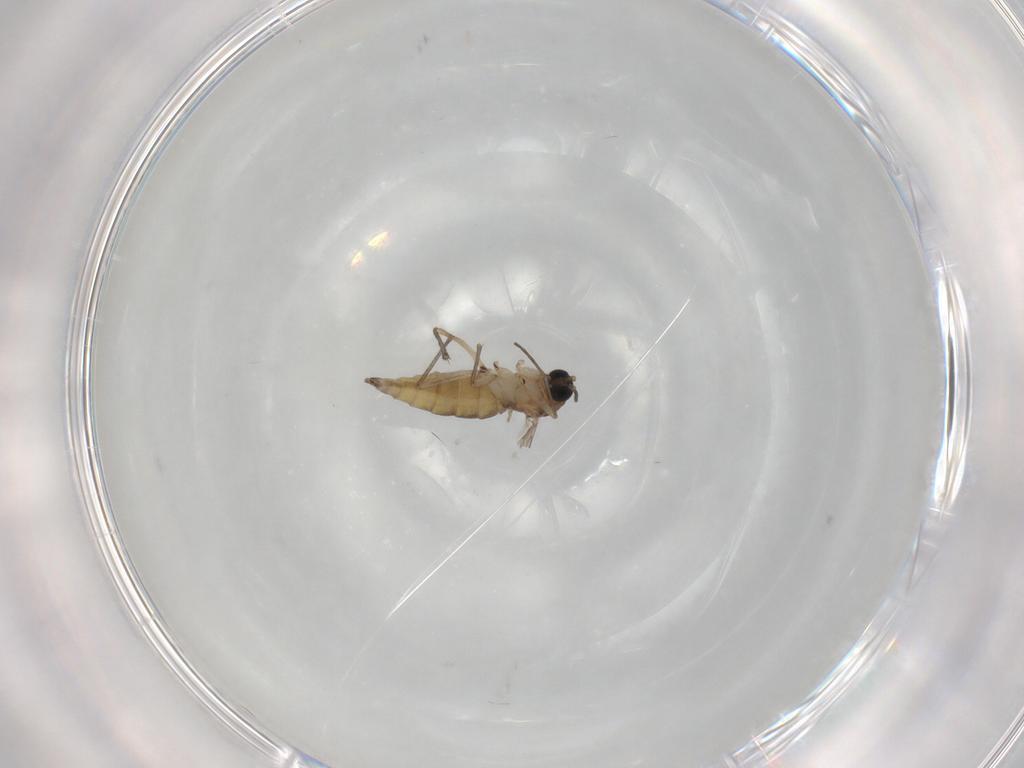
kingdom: Animalia
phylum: Arthropoda
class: Insecta
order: Diptera
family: Sciaridae
